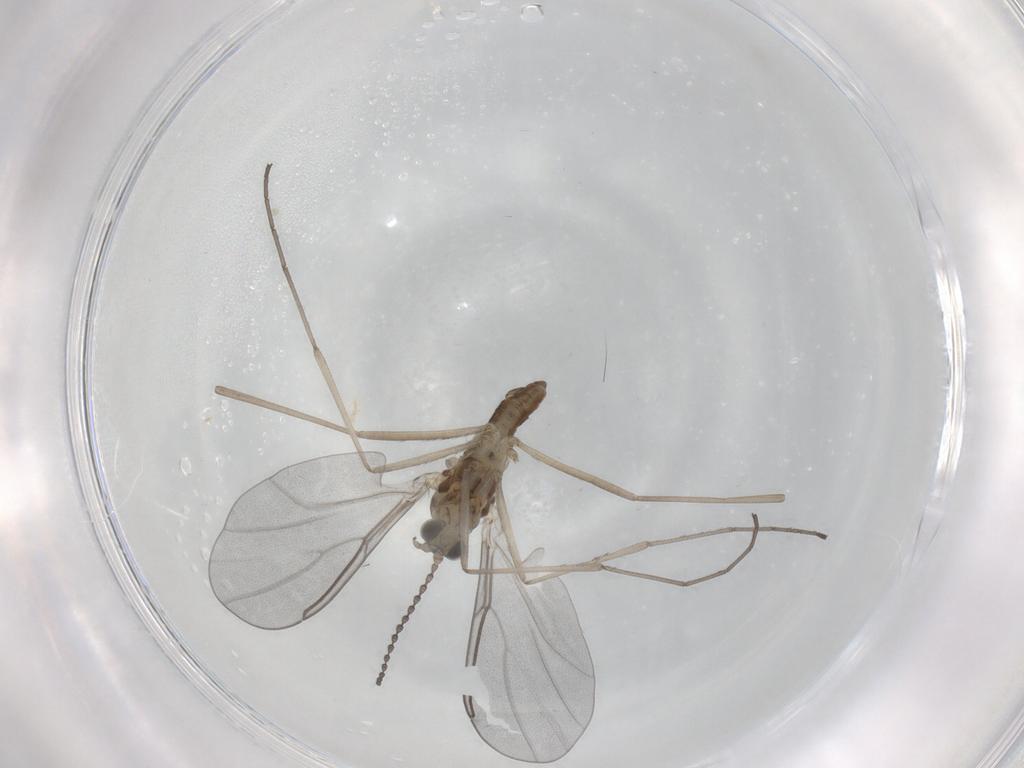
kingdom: Animalia
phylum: Arthropoda
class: Insecta
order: Diptera
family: Cecidomyiidae
